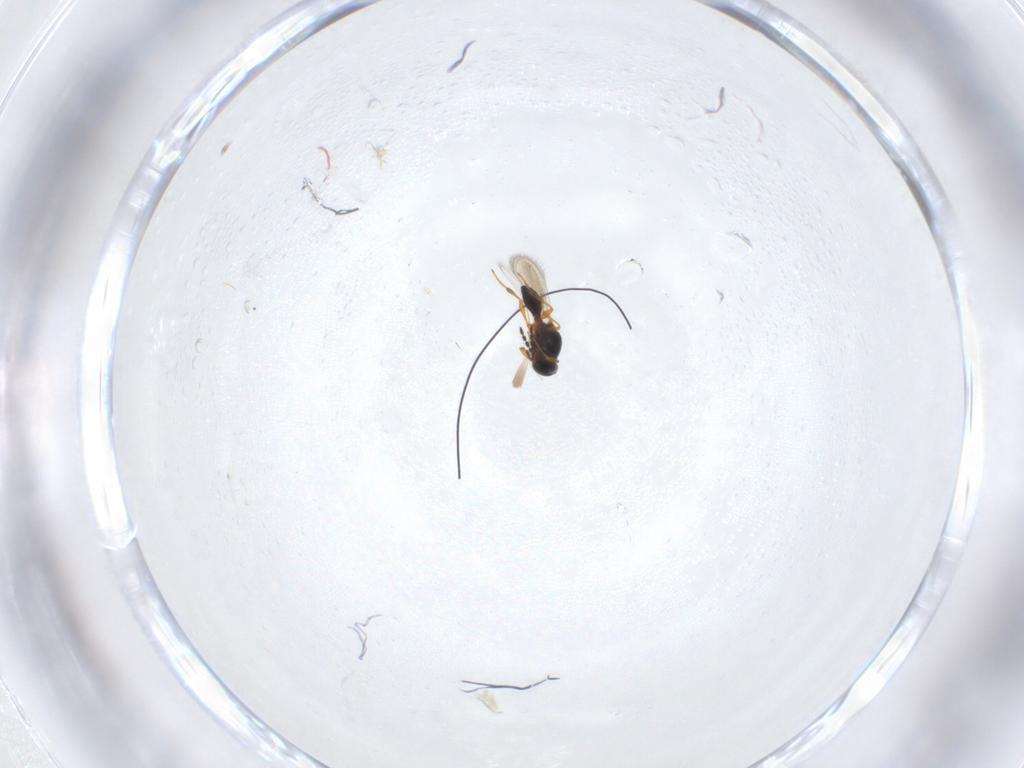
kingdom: Animalia
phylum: Arthropoda
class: Insecta
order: Hymenoptera
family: Platygastridae
